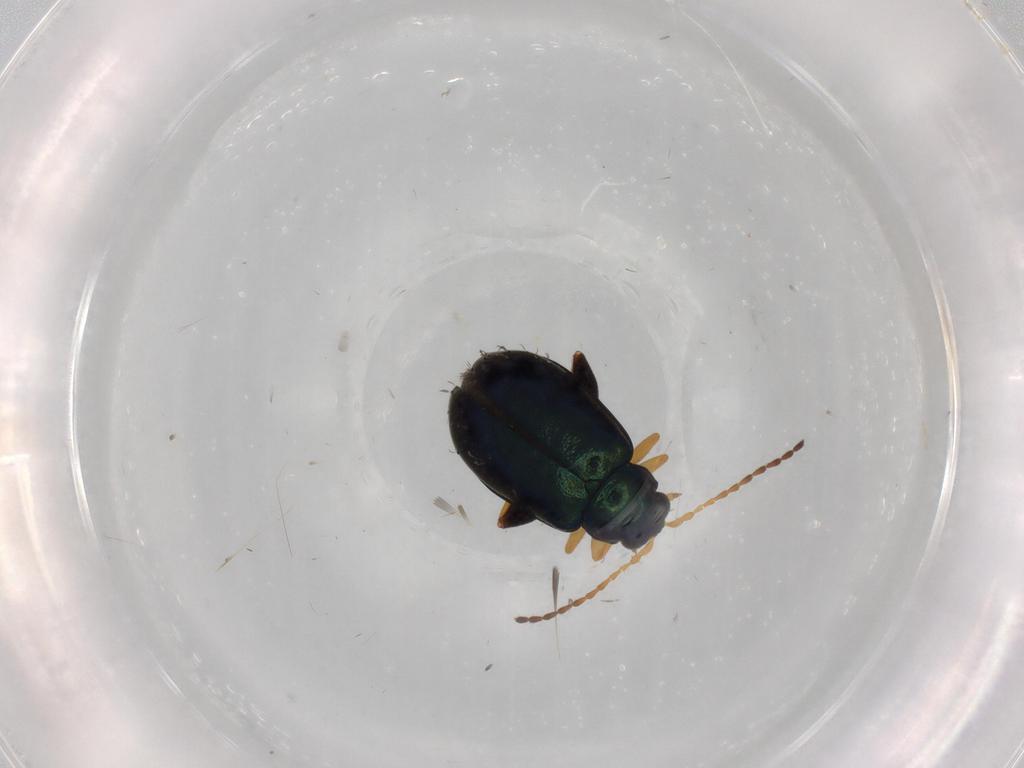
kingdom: Animalia
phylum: Arthropoda
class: Insecta
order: Coleoptera
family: Chrysomelidae
